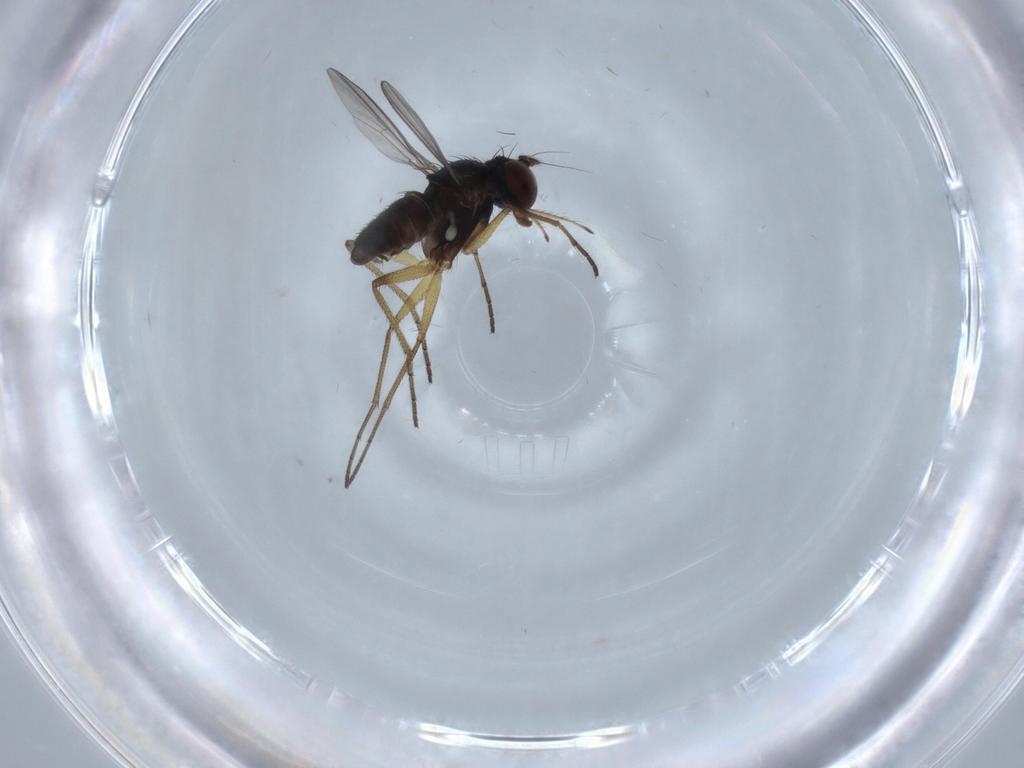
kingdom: Animalia
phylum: Arthropoda
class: Insecta
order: Diptera
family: Dolichopodidae
